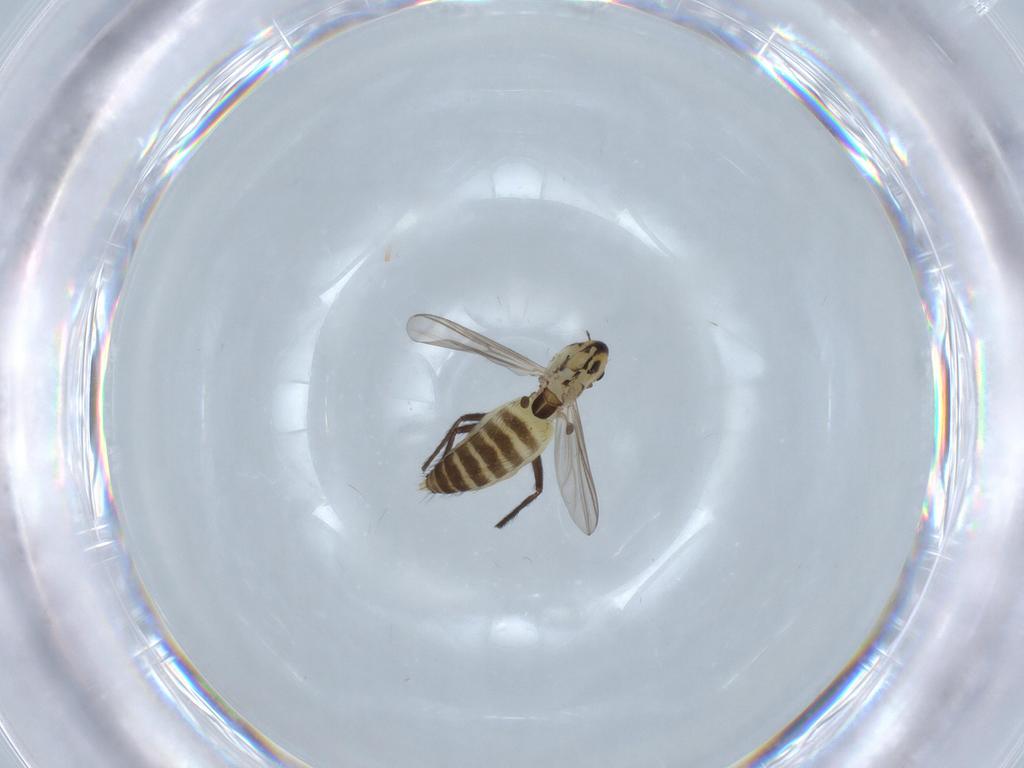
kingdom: Animalia
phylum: Arthropoda
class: Insecta
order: Diptera
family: Chironomidae
